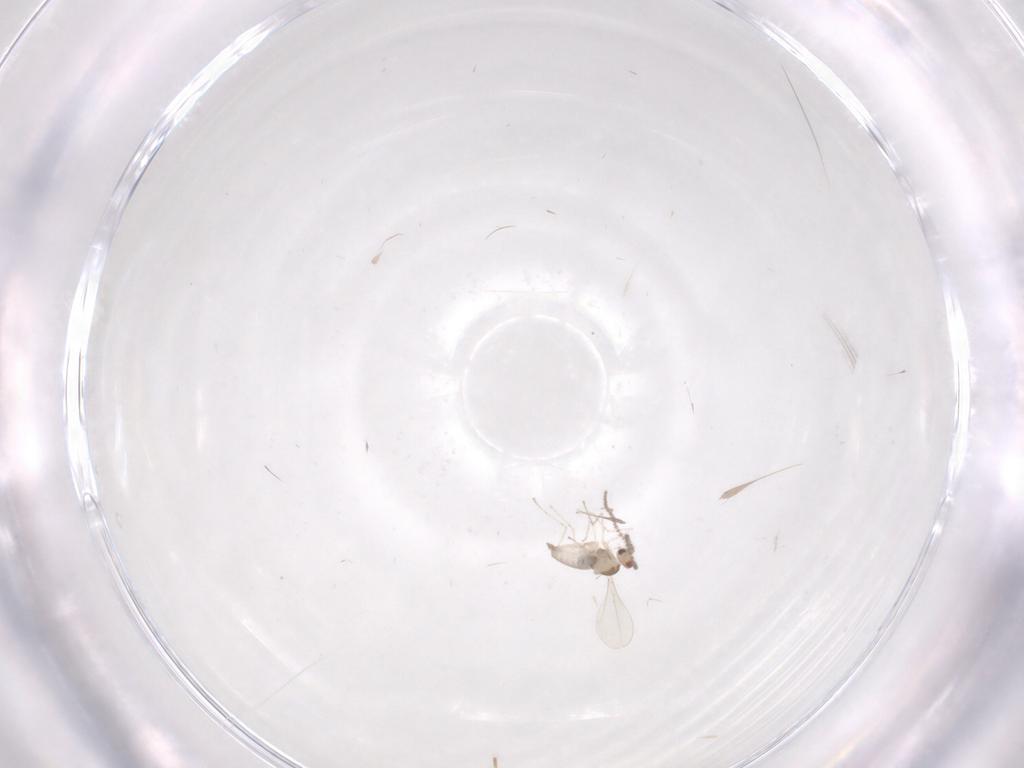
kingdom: Animalia
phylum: Arthropoda
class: Insecta
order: Diptera
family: Cecidomyiidae
